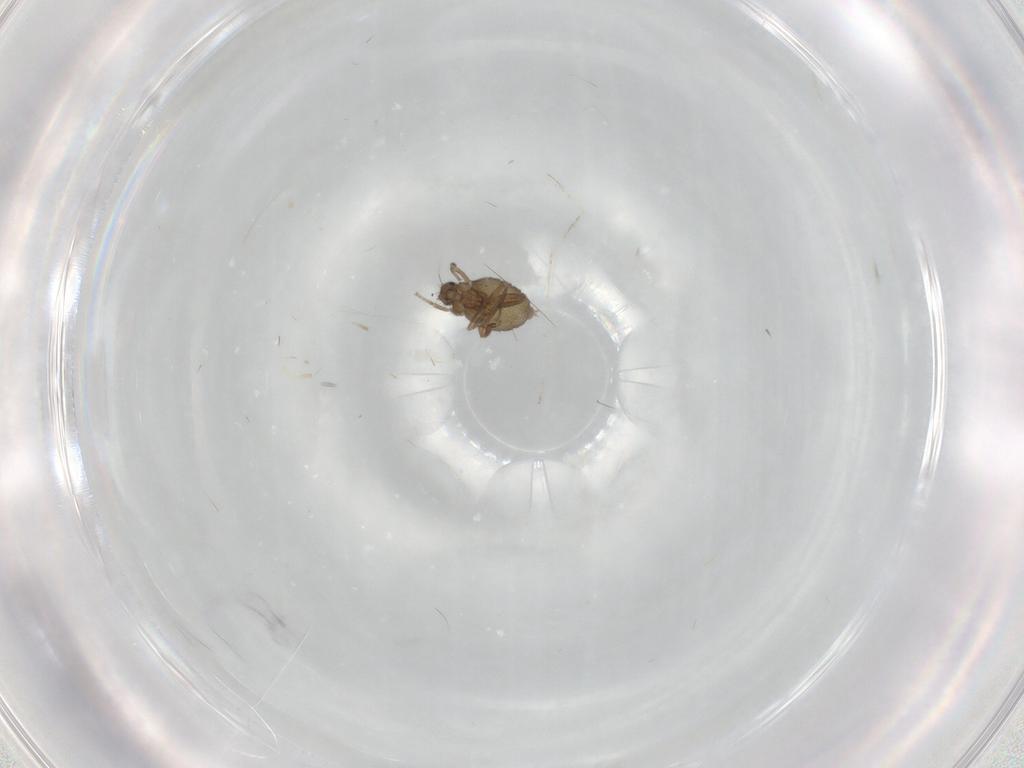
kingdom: Animalia
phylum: Arthropoda
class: Insecta
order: Diptera
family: Cecidomyiidae
